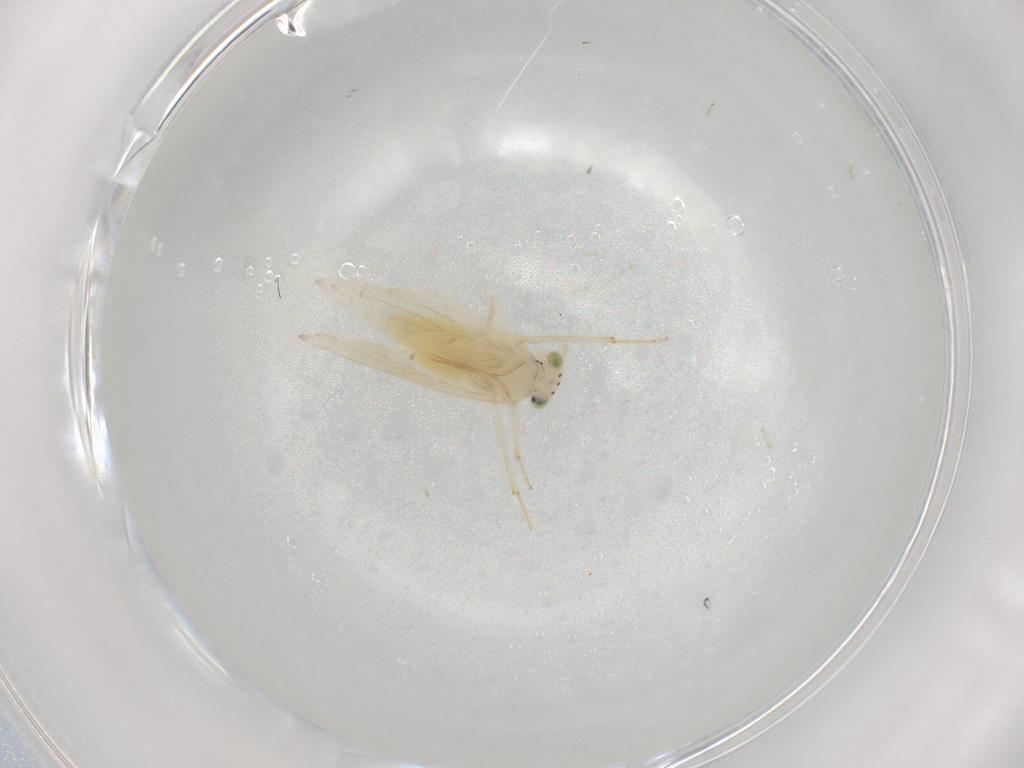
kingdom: Animalia
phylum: Arthropoda
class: Insecta
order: Psocodea
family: Lepidopsocidae
